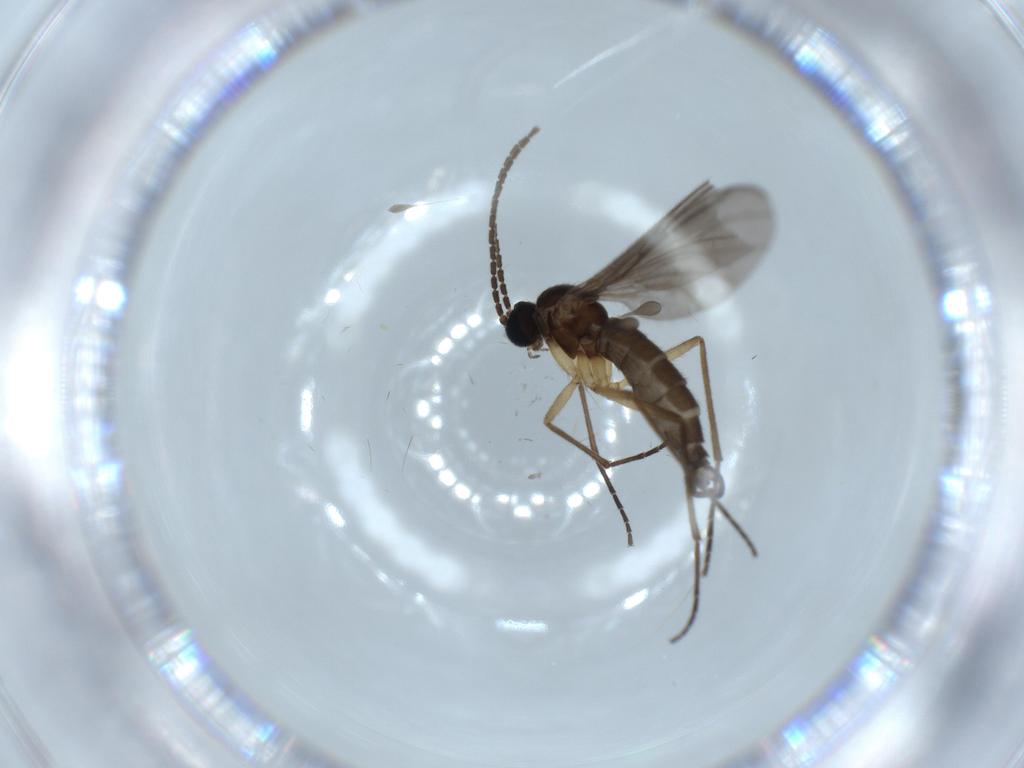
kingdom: Animalia
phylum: Arthropoda
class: Insecta
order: Diptera
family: Sciaridae
